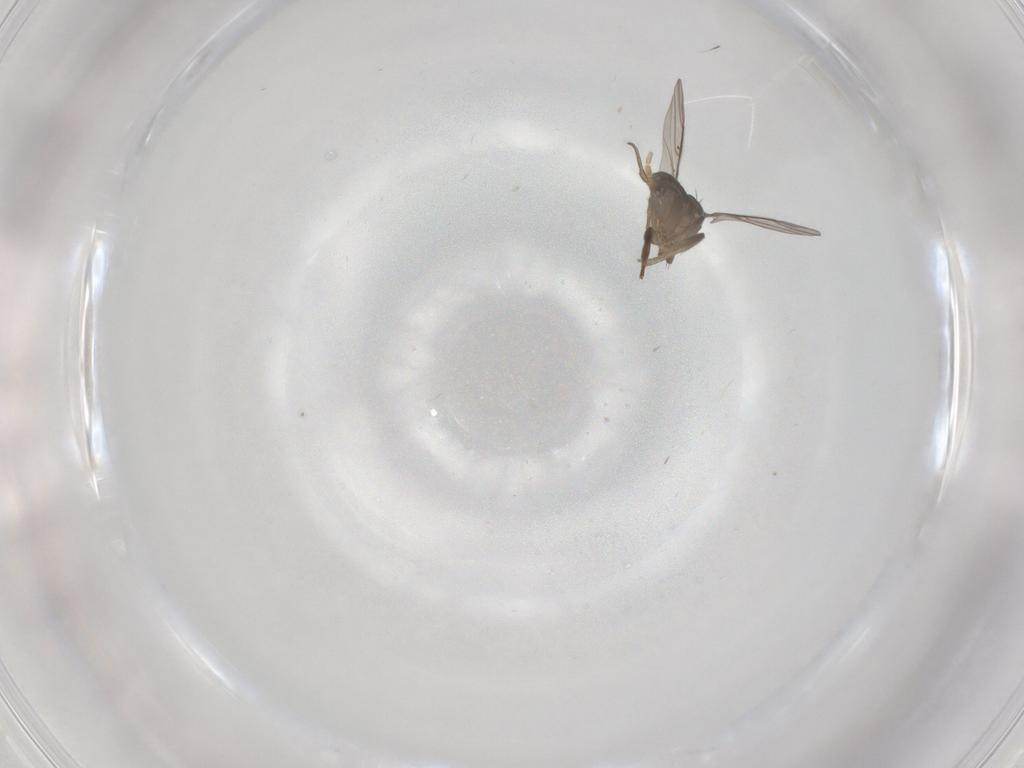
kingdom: Animalia
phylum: Arthropoda
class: Insecta
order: Diptera
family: Phoridae
